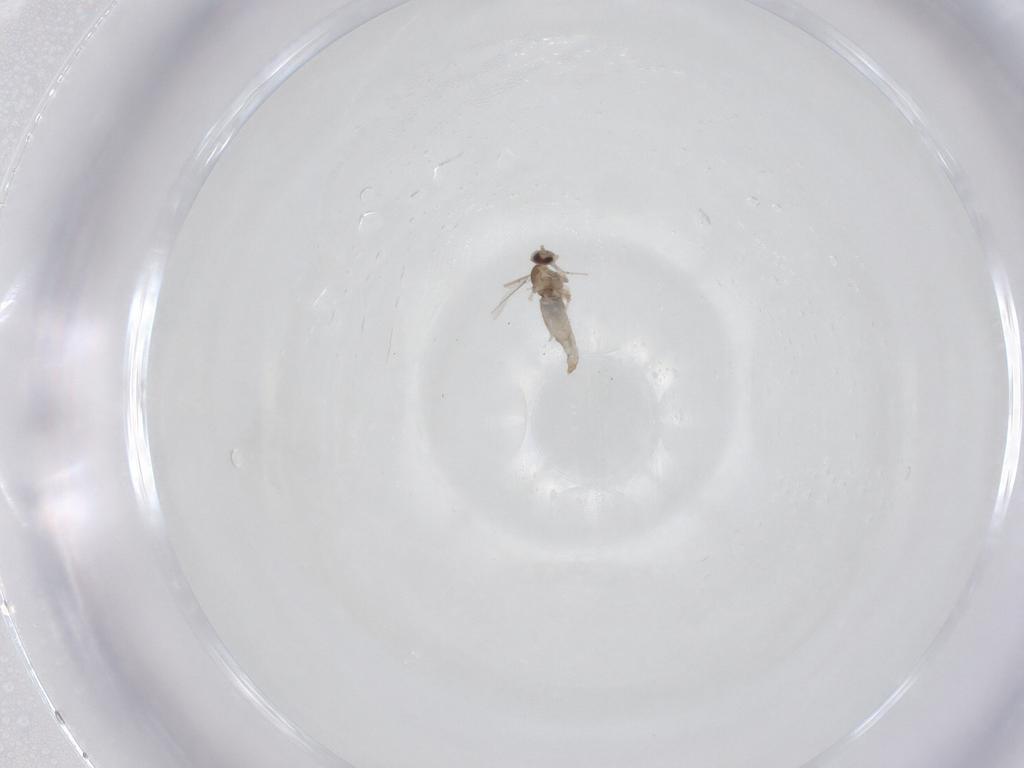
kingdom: Animalia
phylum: Arthropoda
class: Insecta
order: Diptera
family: Cecidomyiidae
